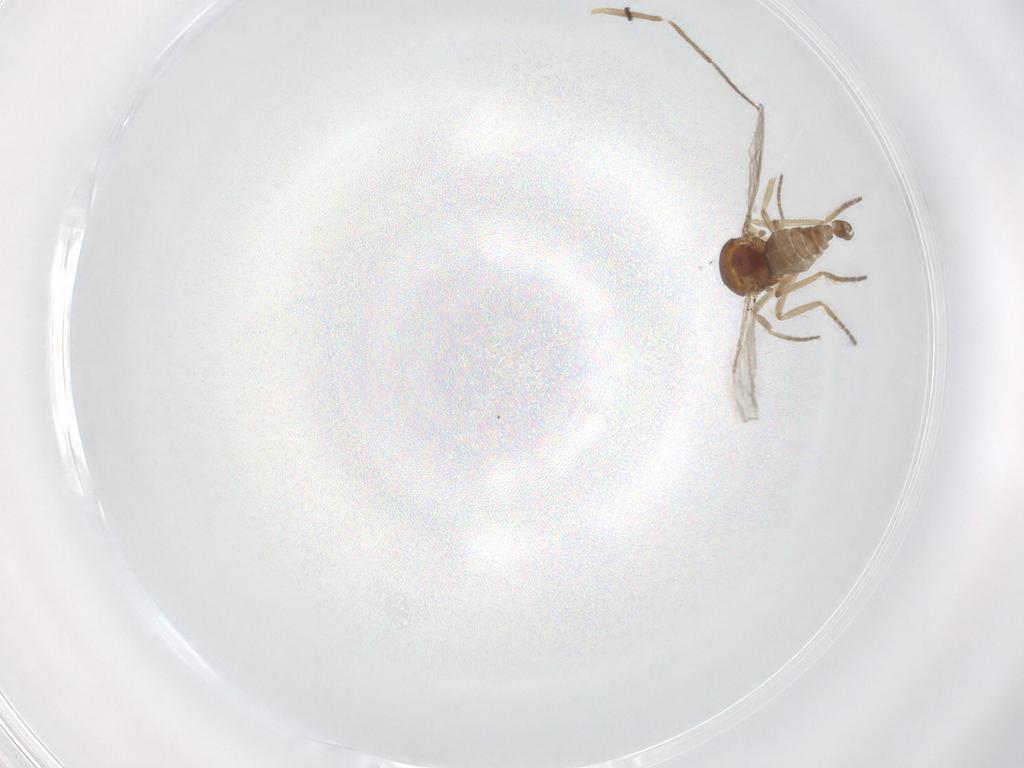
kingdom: Animalia
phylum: Arthropoda
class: Insecta
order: Diptera
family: Ceratopogonidae
